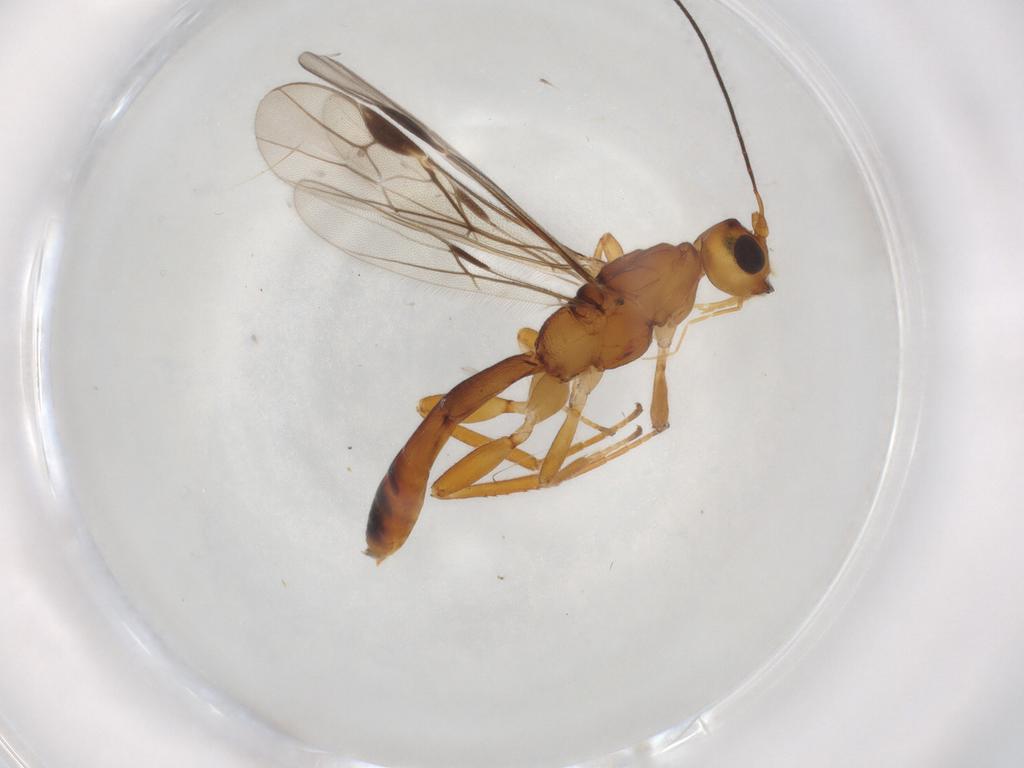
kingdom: Animalia
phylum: Arthropoda
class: Insecta
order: Hymenoptera
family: Braconidae
